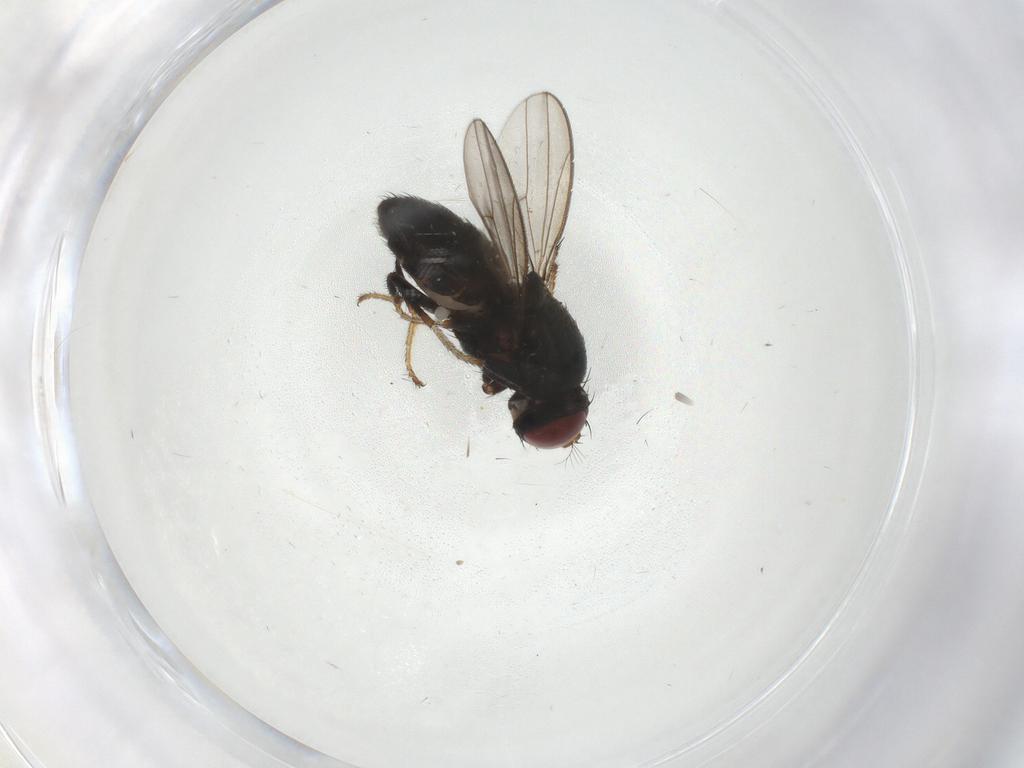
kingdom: Animalia
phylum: Arthropoda
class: Insecta
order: Diptera
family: Ephydridae
